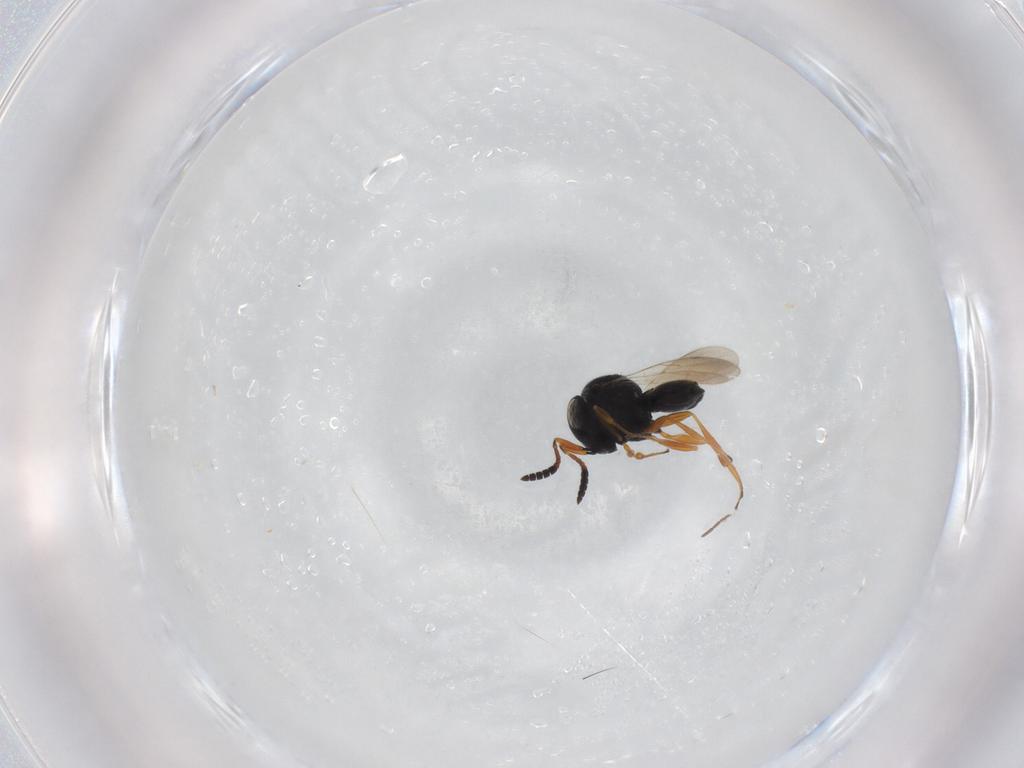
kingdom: Animalia
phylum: Arthropoda
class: Insecta
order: Hymenoptera
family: Scelionidae
